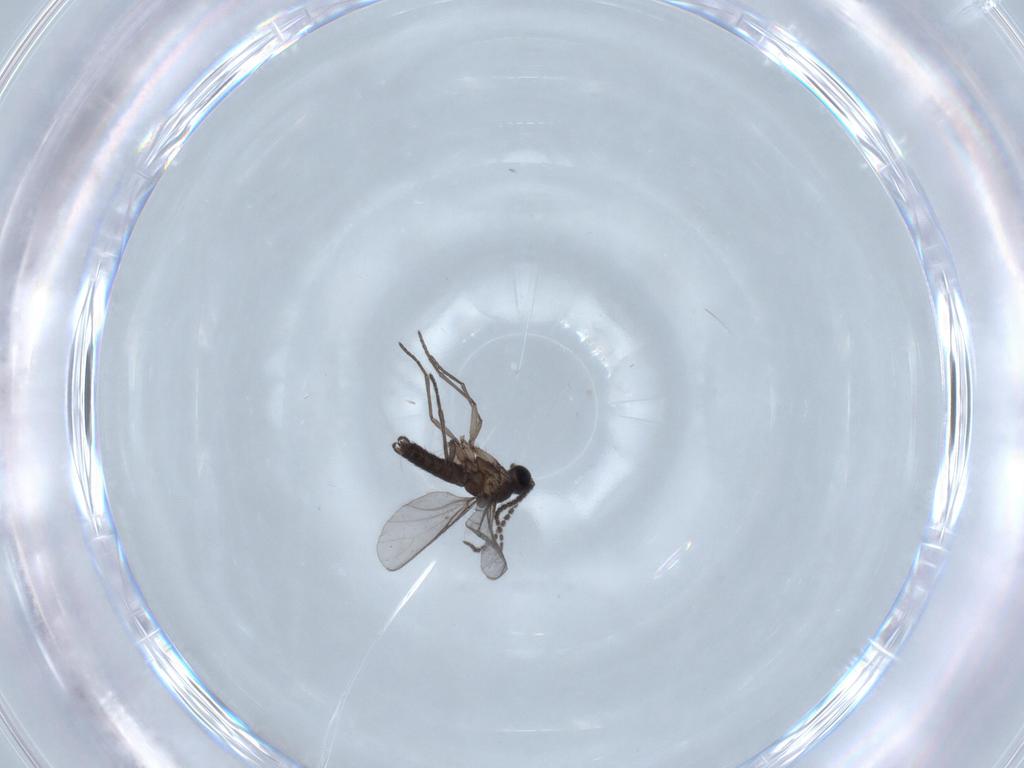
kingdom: Animalia
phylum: Arthropoda
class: Insecta
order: Diptera
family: Sciaridae
